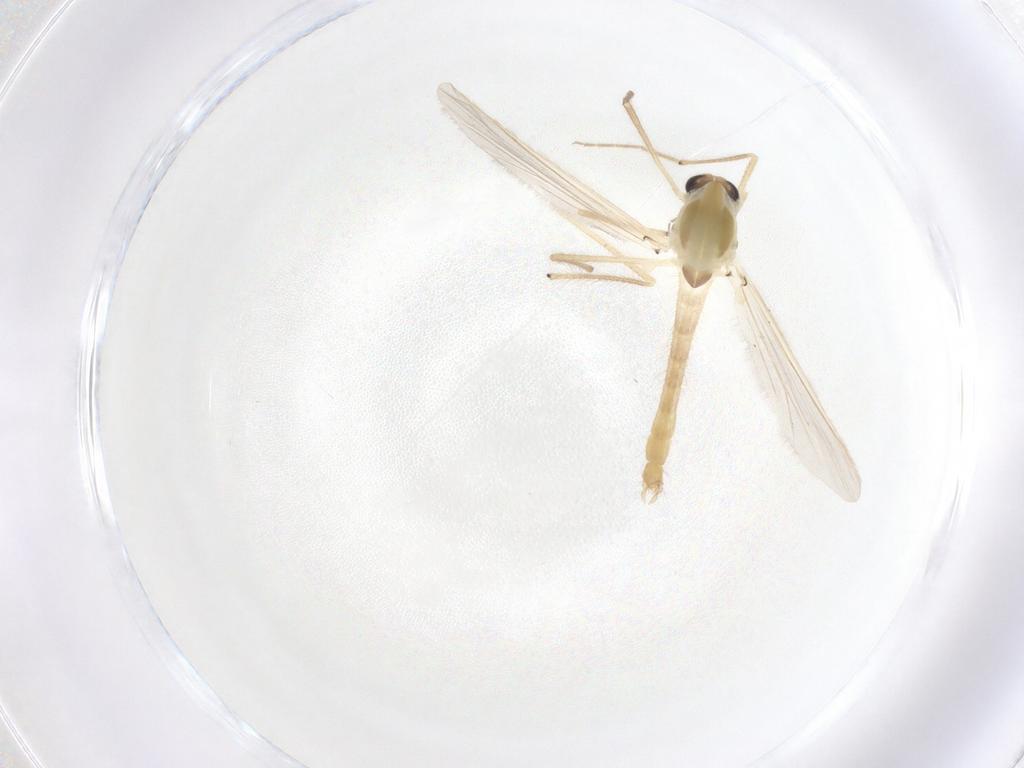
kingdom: Animalia
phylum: Arthropoda
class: Insecta
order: Diptera
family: Chironomidae
